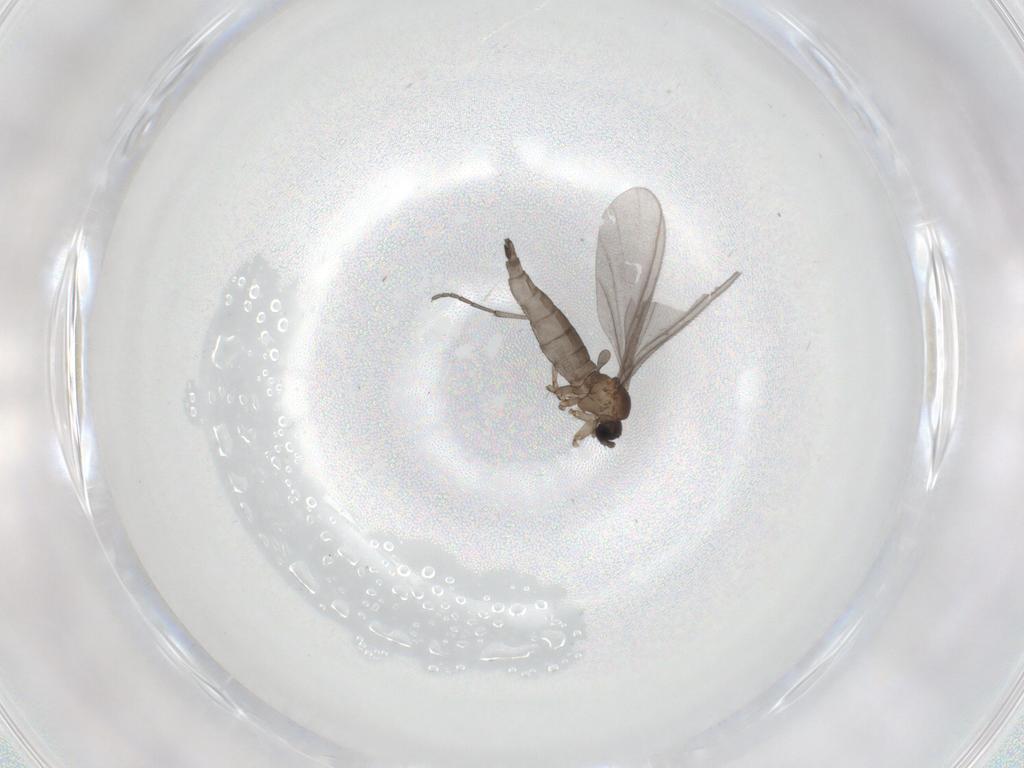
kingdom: Animalia
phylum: Arthropoda
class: Insecta
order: Diptera
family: Sciaridae
